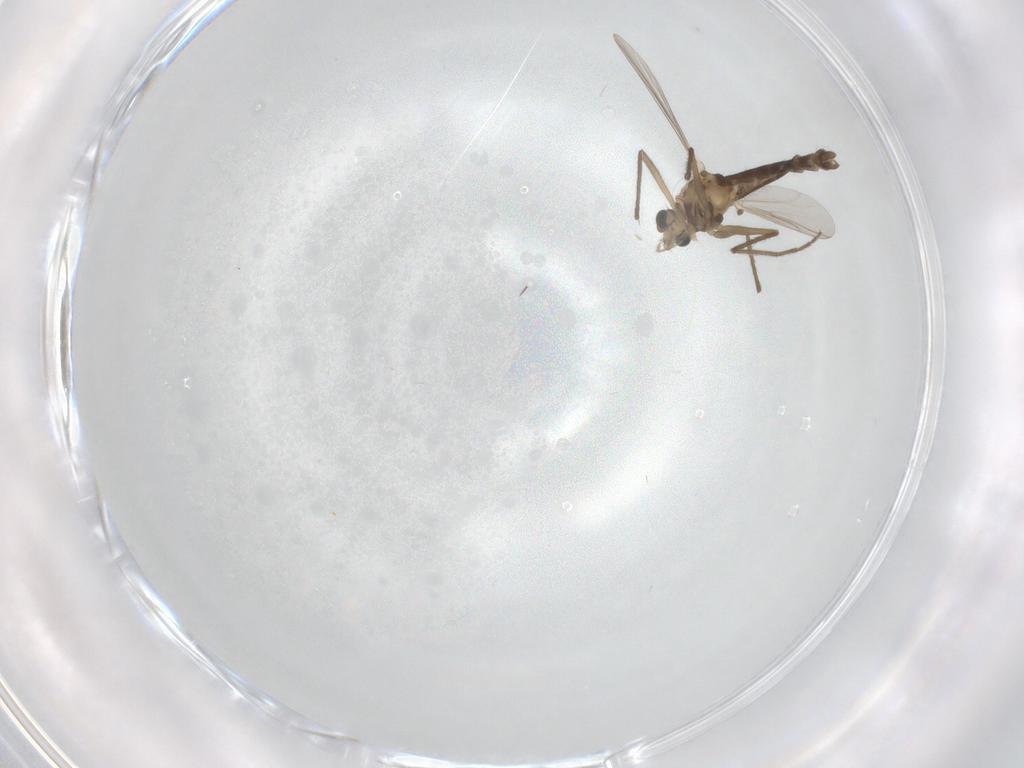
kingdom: Animalia
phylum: Arthropoda
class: Insecta
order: Diptera
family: Chironomidae
